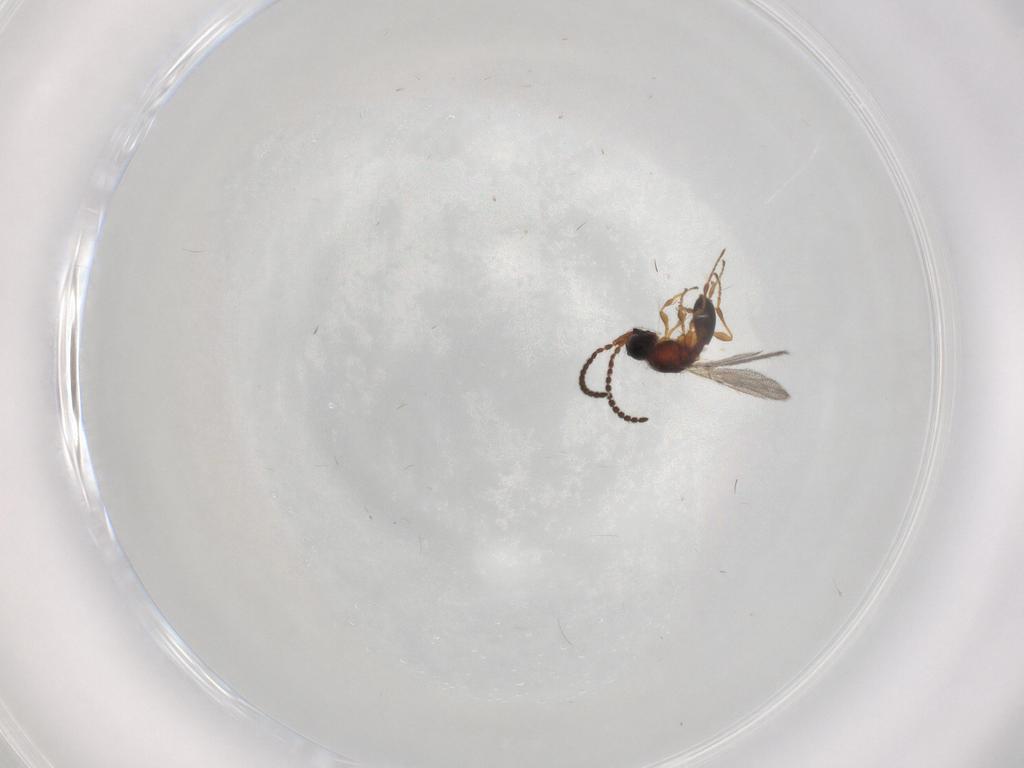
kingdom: Animalia
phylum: Arthropoda
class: Insecta
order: Hymenoptera
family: Diapriidae
